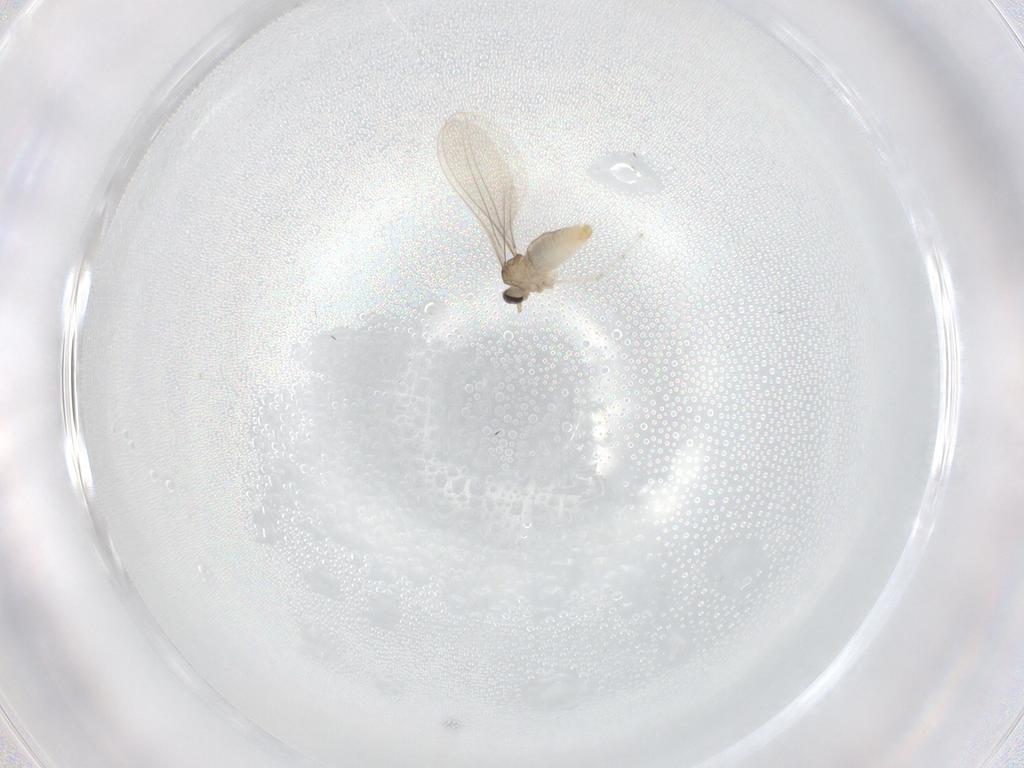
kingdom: Animalia
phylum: Arthropoda
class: Insecta
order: Diptera
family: Cecidomyiidae
